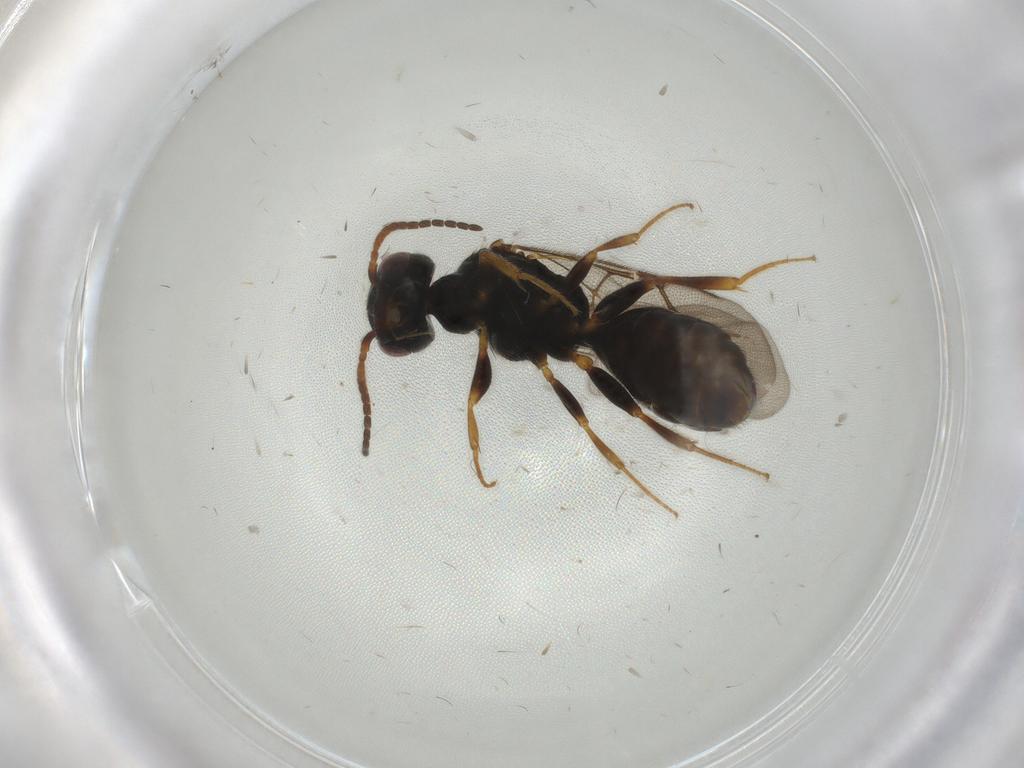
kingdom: Animalia
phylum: Arthropoda
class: Insecta
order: Hymenoptera
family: Bethylidae
